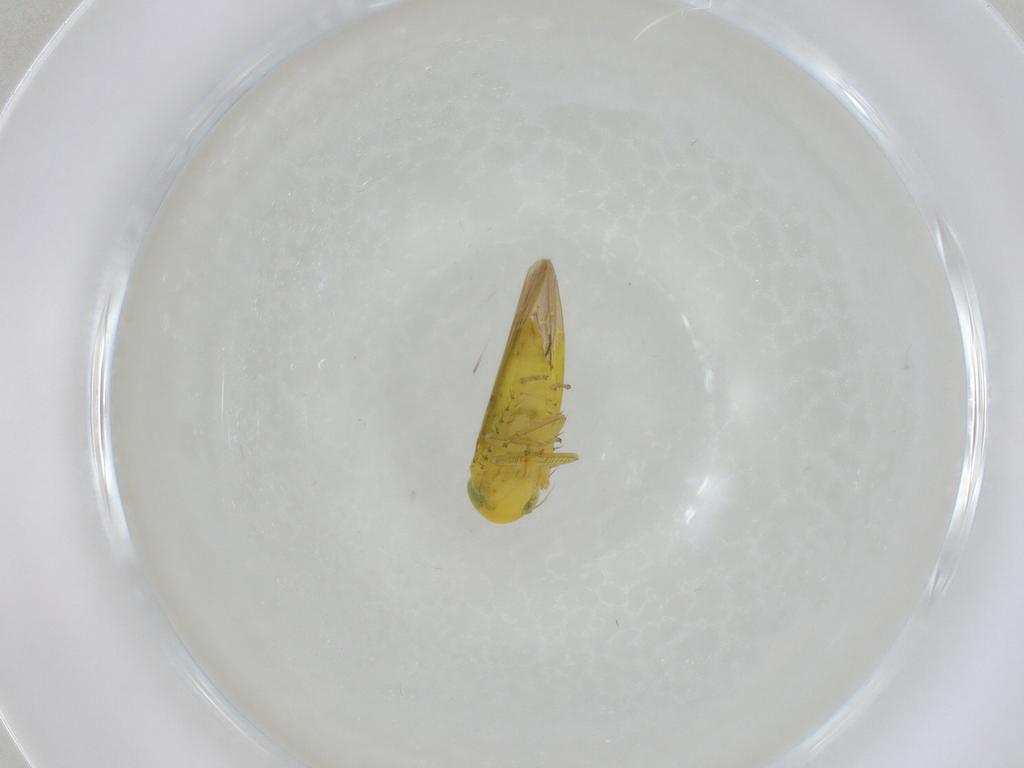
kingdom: Animalia
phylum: Arthropoda
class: Insecta
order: Hemiptera
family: Cicadellidae
